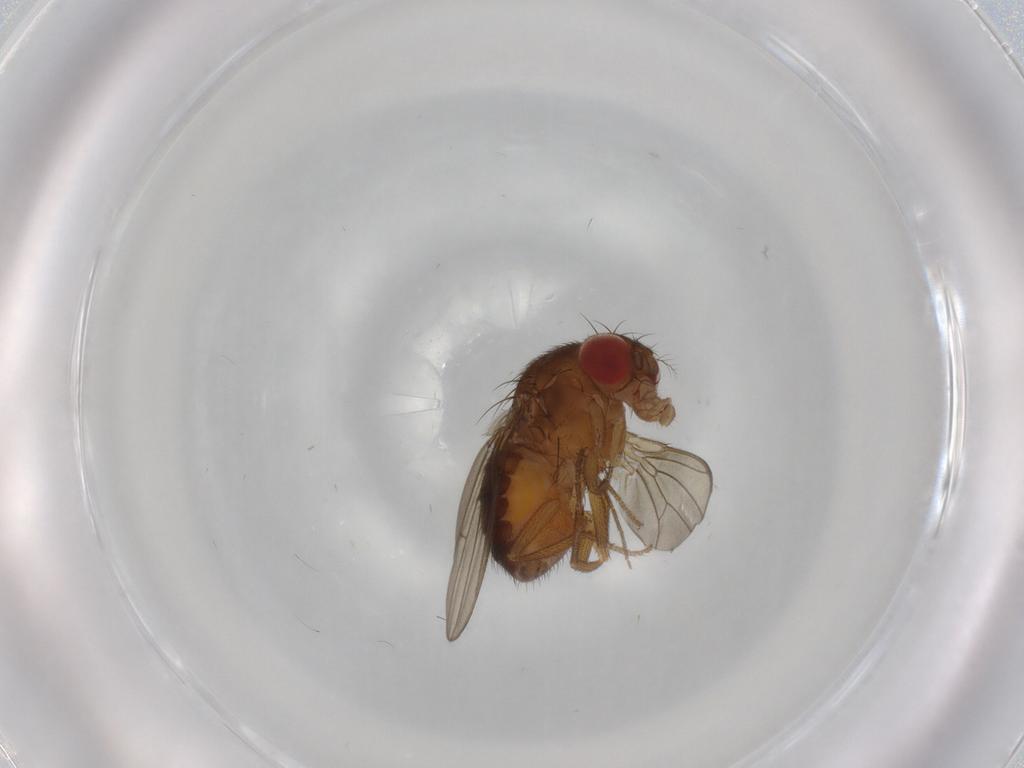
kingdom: Animalia
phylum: Arthropoda
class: Insecta
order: Diptera
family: Drosophilidae
